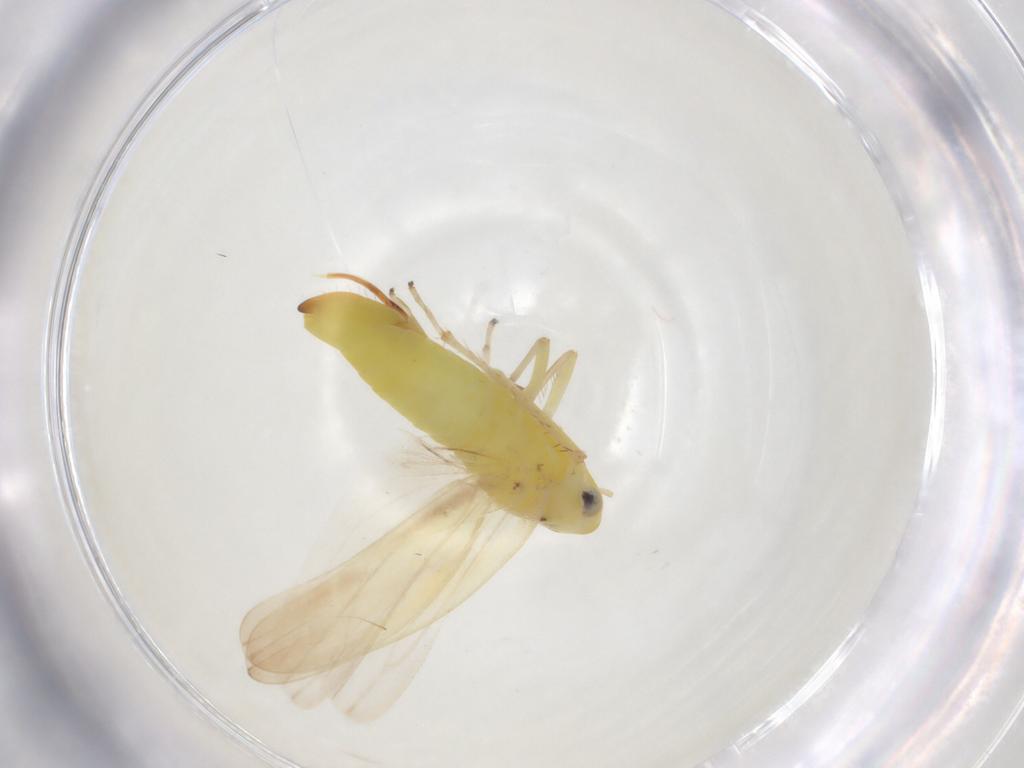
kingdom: Animalia
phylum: Arthropoda
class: Insecta
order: Hemiptera
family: Cicadellidae
